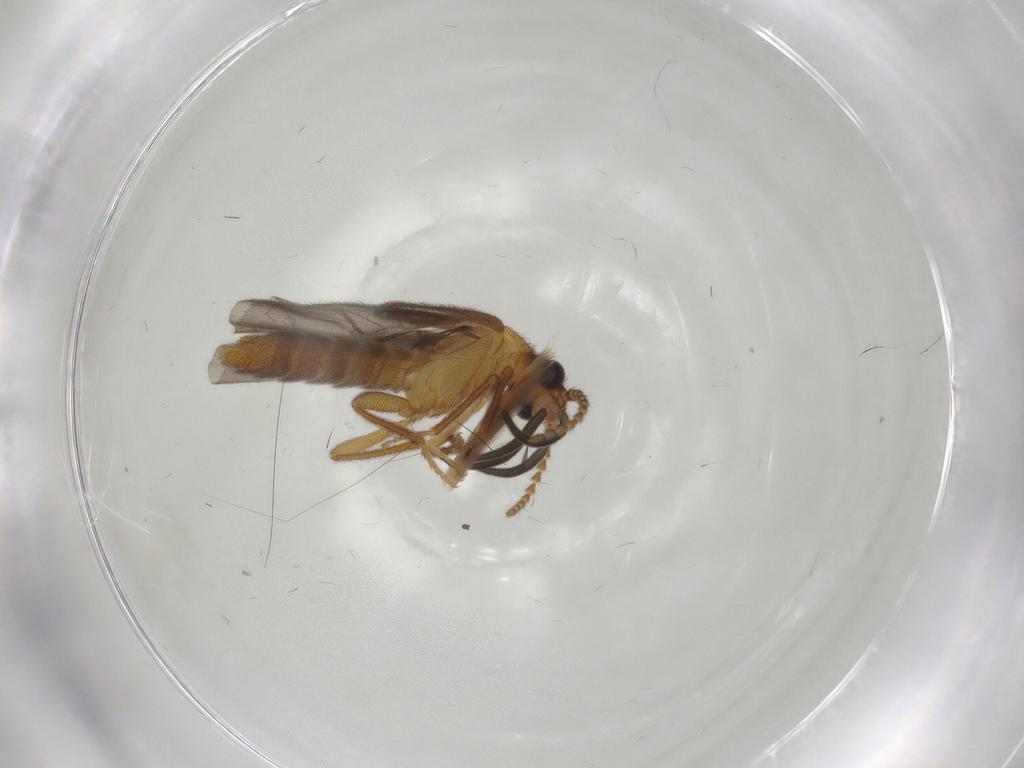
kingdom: Animalia
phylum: Arthropoda
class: Insecta
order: Coleoptera
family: Omethidae
